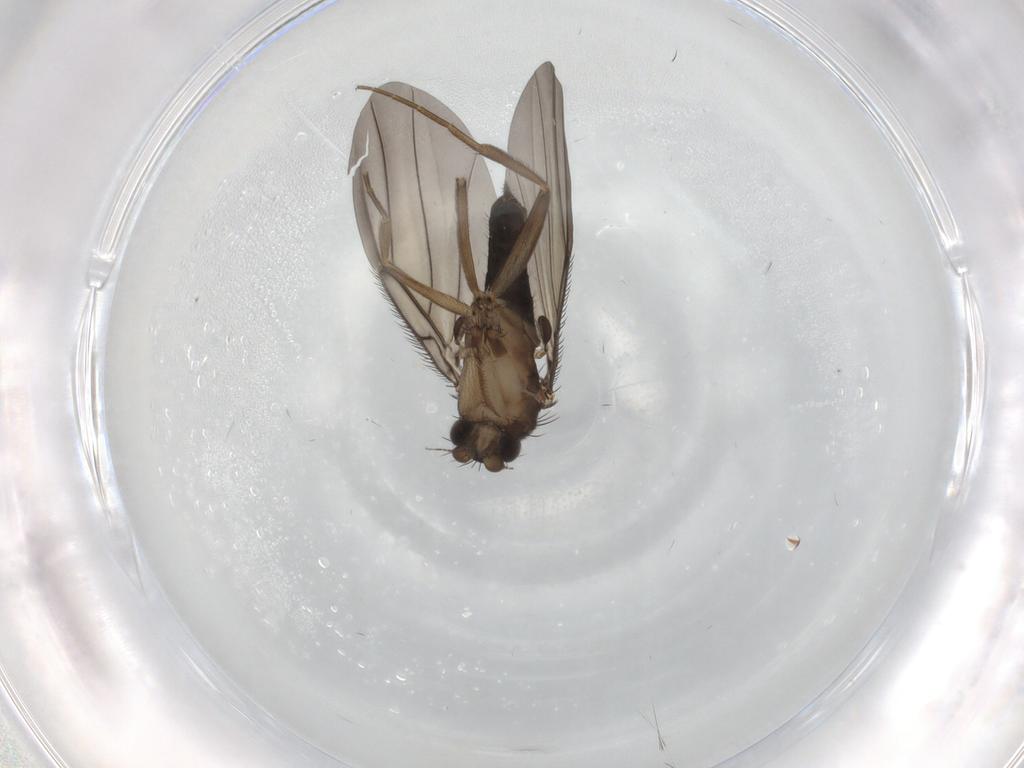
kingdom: Animalia
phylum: Arthropoda
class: Insecta
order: Diptera
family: Phoridae
